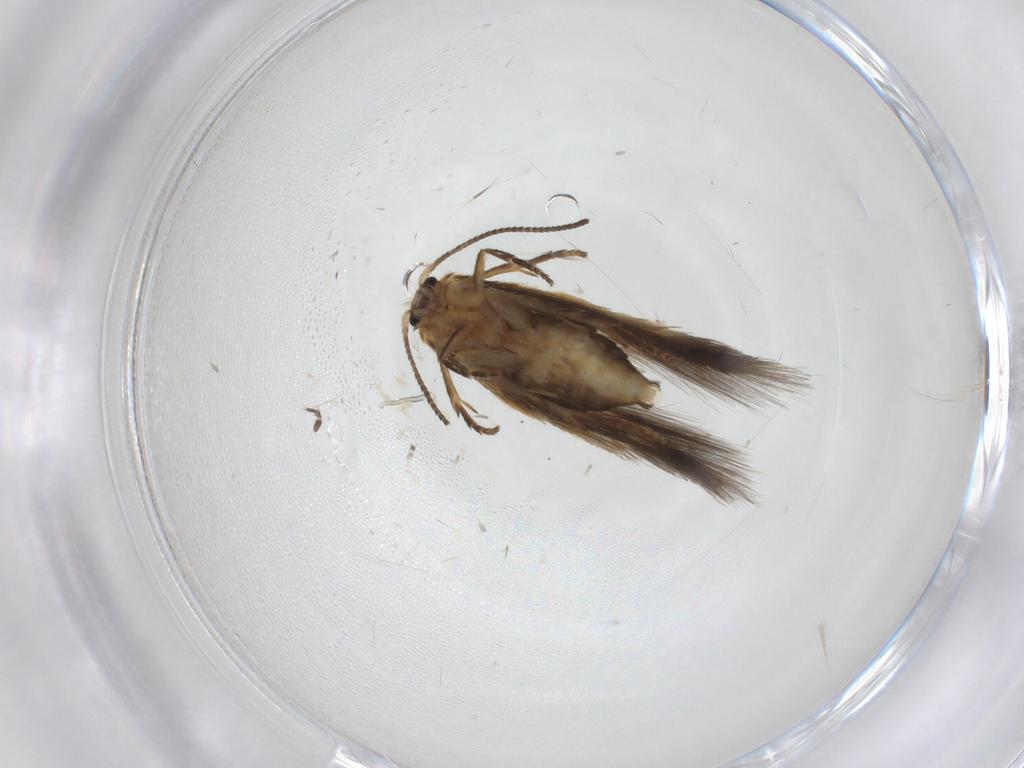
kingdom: Animalia
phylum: Arthropoda
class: Insecta
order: Lepidoptera
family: Nepticulidae
